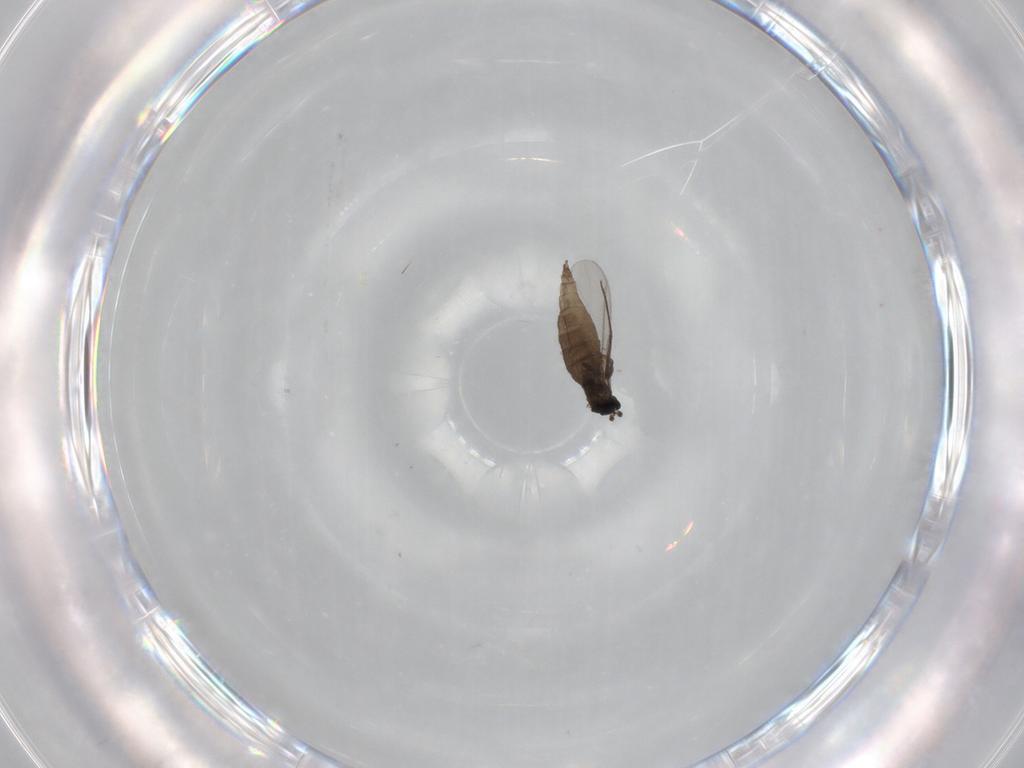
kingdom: Animalia
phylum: Arthropoda
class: Insecta
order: Diptera
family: Sciaridae
